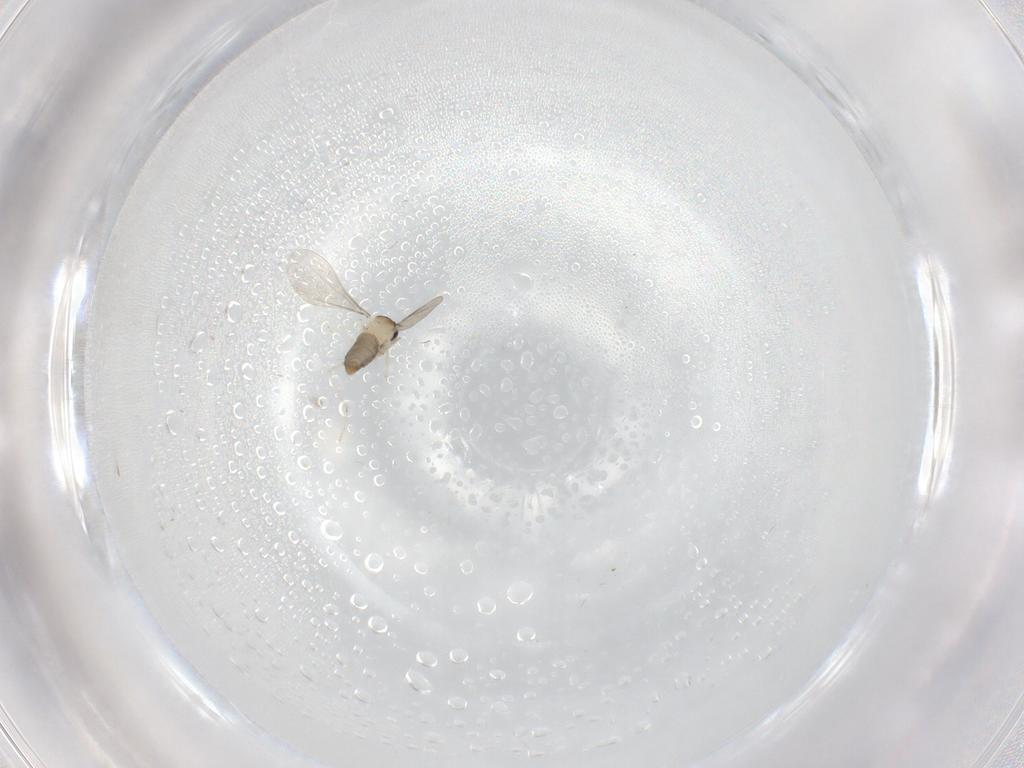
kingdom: Animalia
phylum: Arthropoda
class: Insecta
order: Diptera
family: Cecidomyiidae
